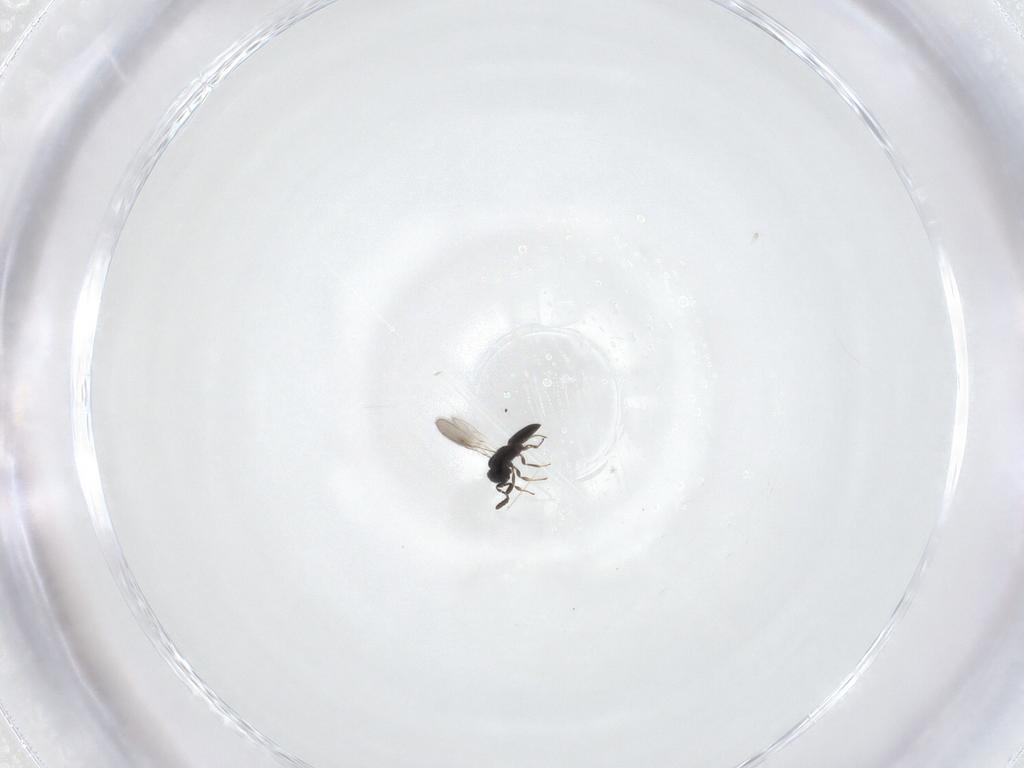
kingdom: Animalia
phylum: Arthropoda
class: Insecta
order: Hymenoptera
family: Scelionidae
